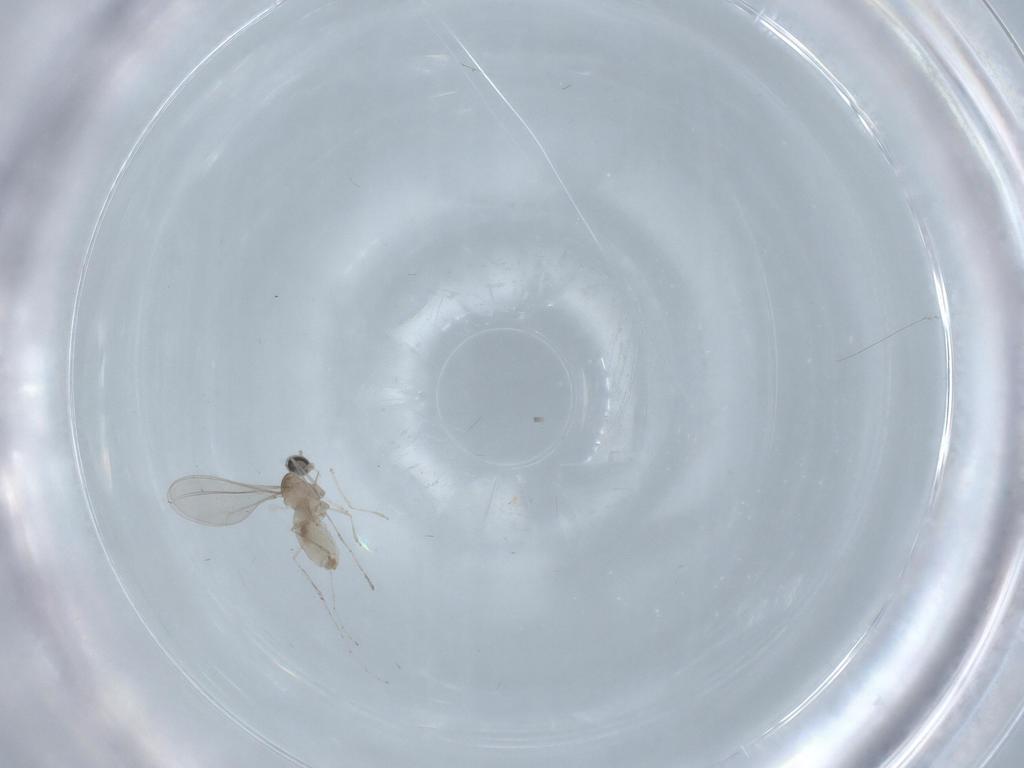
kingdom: Animalia
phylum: Arthropoda
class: Insecta
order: Diptera
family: Cecidomyiidae
